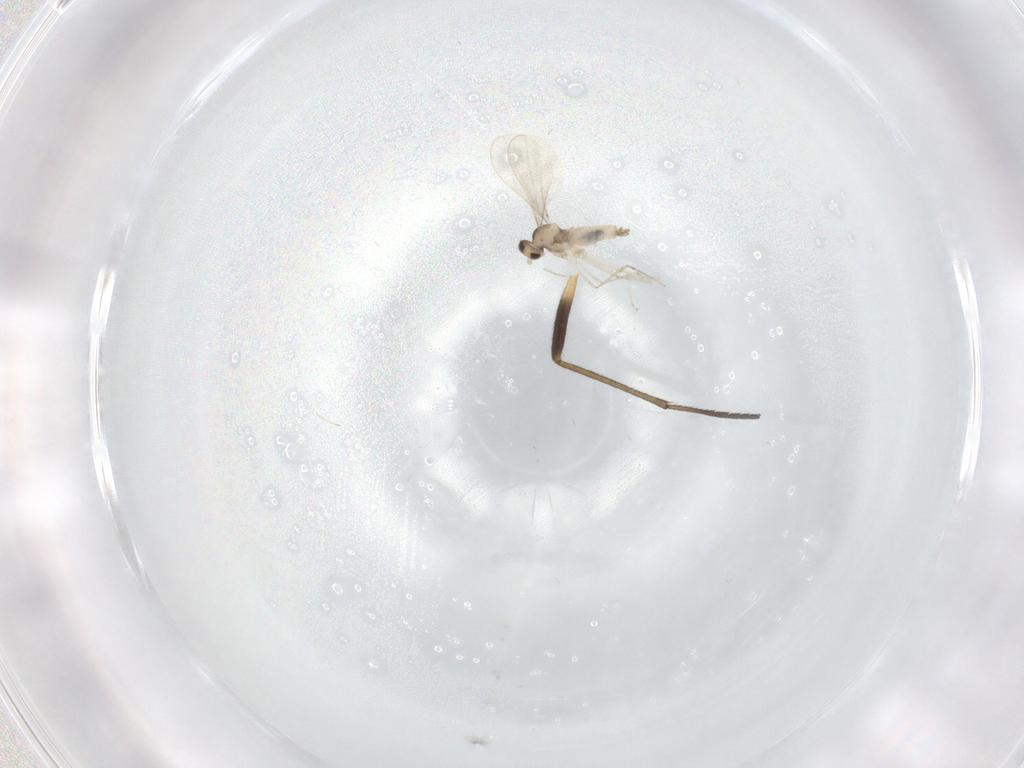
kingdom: Animalia
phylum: Arthropoda
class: Insecta
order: Diptera
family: Cecidomyiidae
